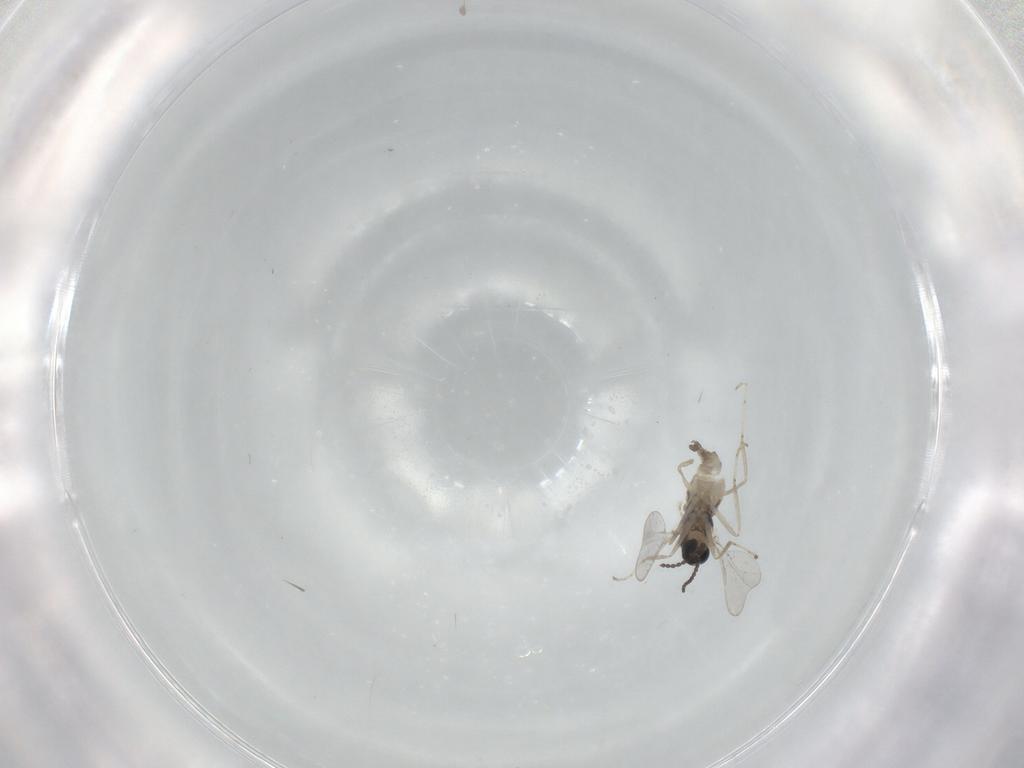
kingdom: Animalia
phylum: Arthropoda
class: Insecta
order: Diptera
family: Cecidomyiidae
